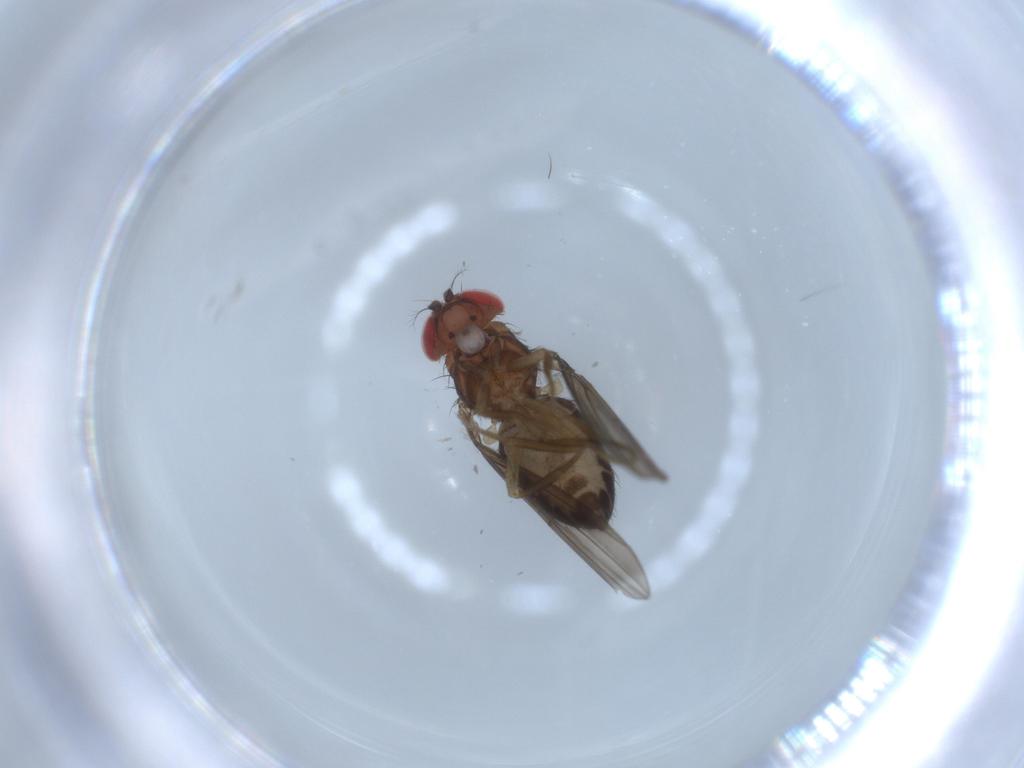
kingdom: Animalia
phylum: Arthropoda
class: Insecta
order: Diptera
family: Drosophilidae
